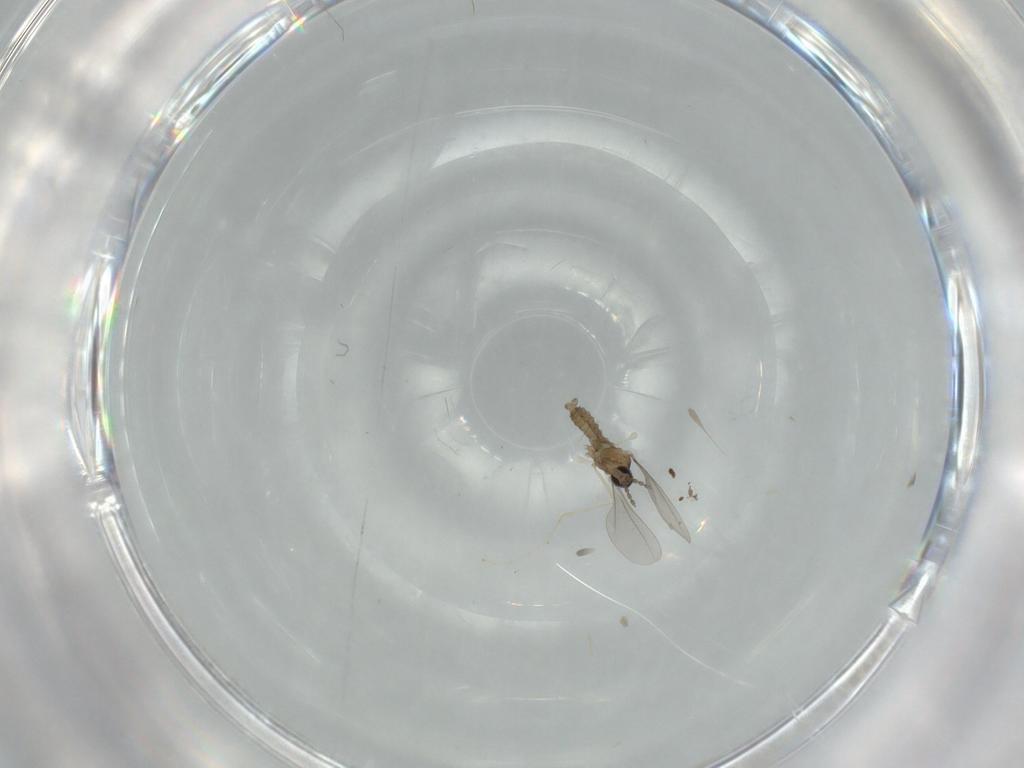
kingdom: Animalia
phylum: Arthropoda
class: Insecta
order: Diptera
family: Cecidomyiidae
